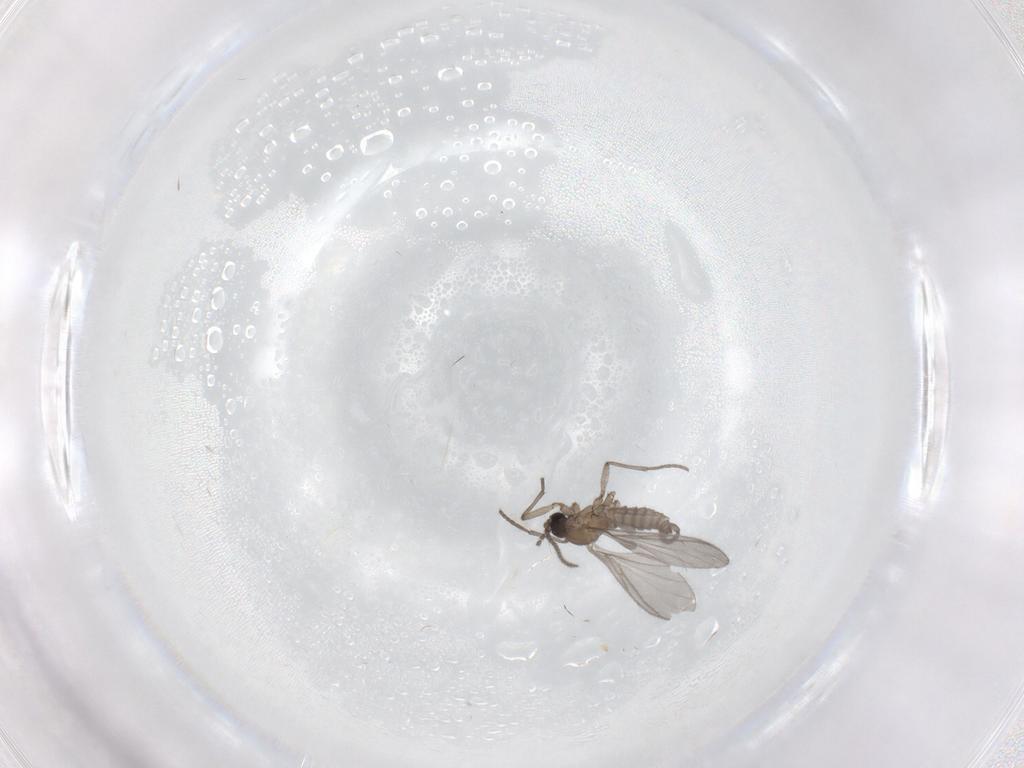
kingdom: Animalia
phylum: Arthropoda
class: Insecta
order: Diptera
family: Sciaridae
